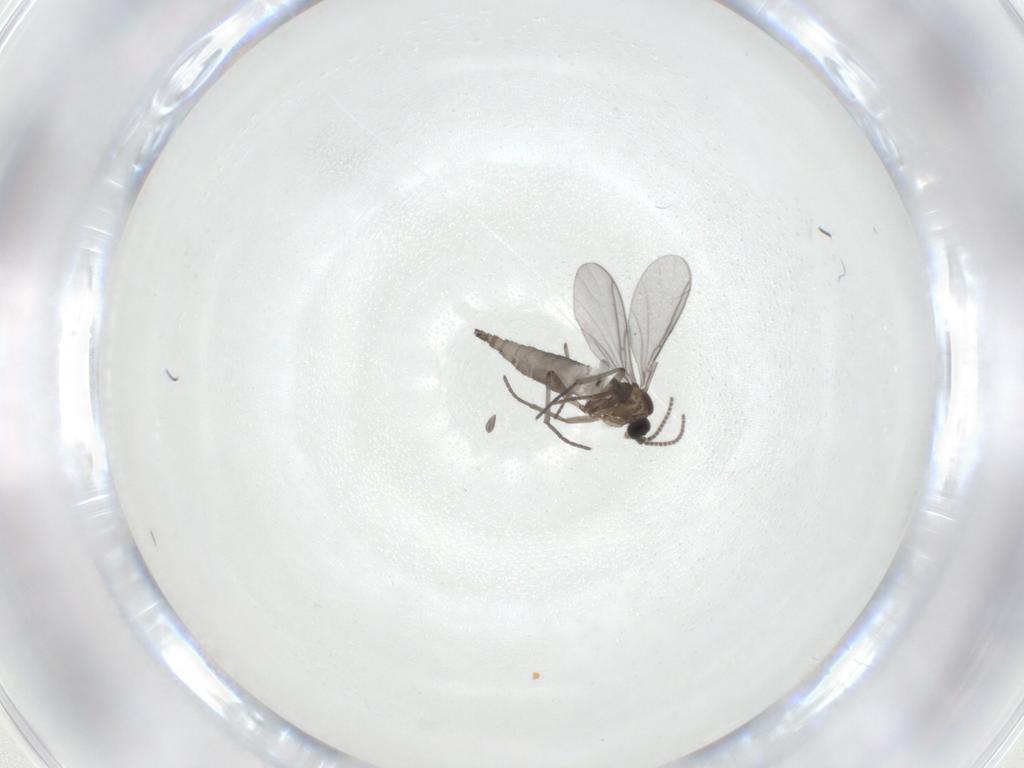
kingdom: Animalia
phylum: Arthropoda
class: Insecta
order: Diptera
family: Sciaridae
